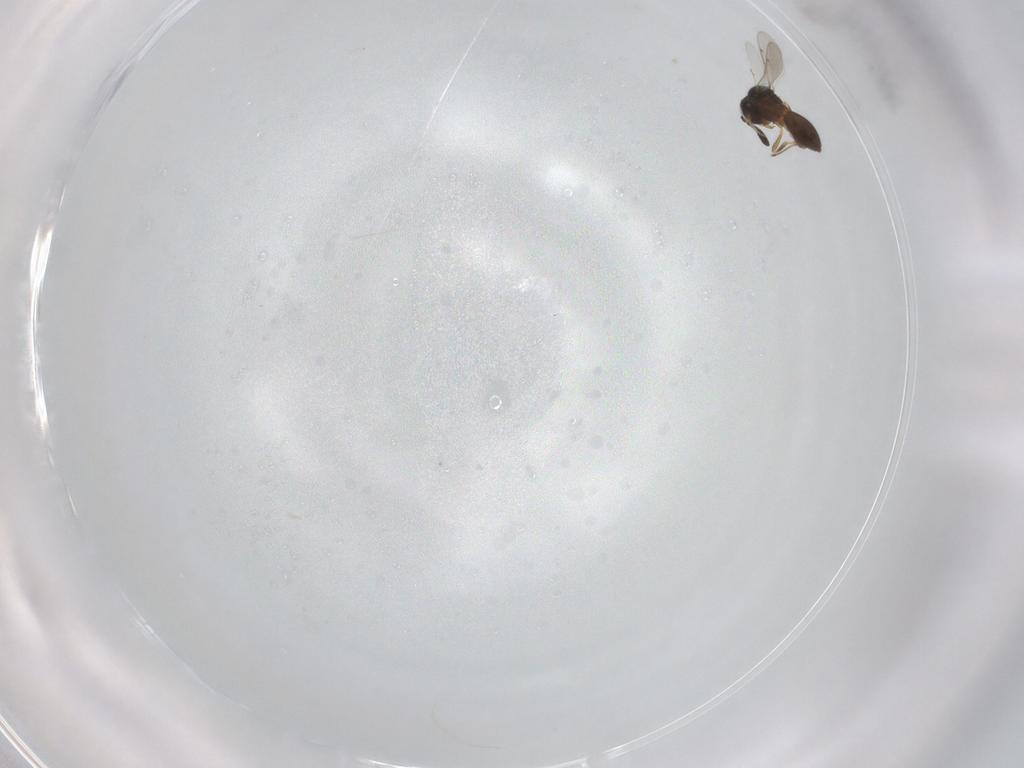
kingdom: Animalia
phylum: Arthropoda
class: Insecta
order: Hymenoptera
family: Scelionidae
